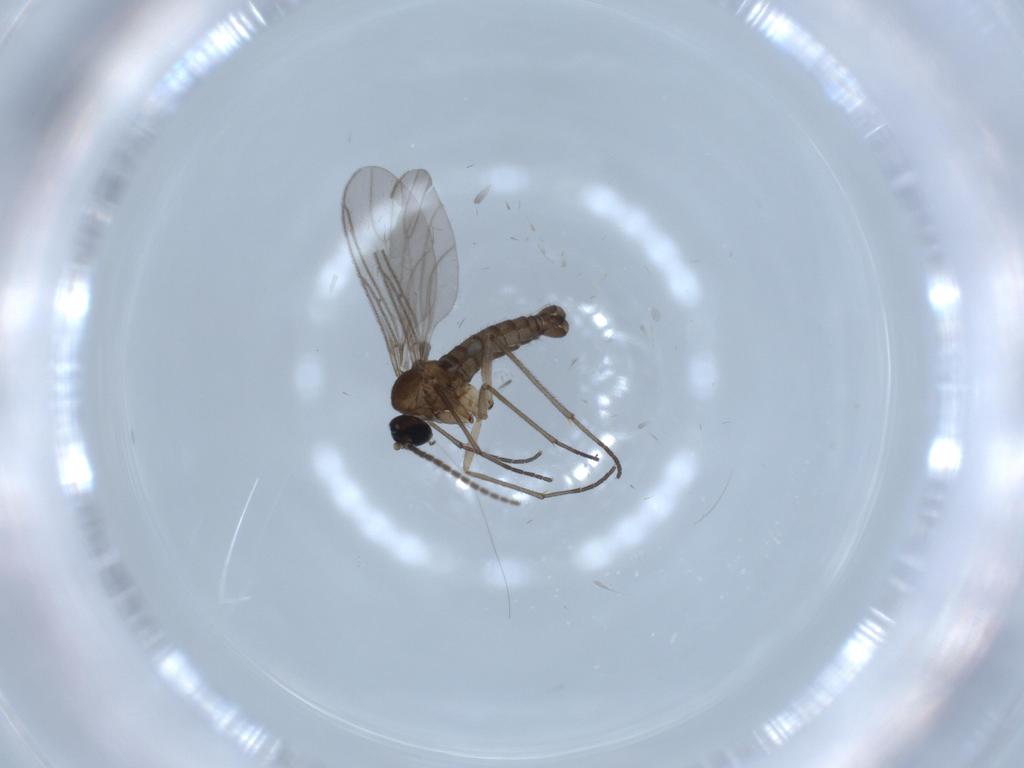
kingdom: Animalia
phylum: Arthropoda
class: Insecta
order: Diptera
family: Sciaridae
